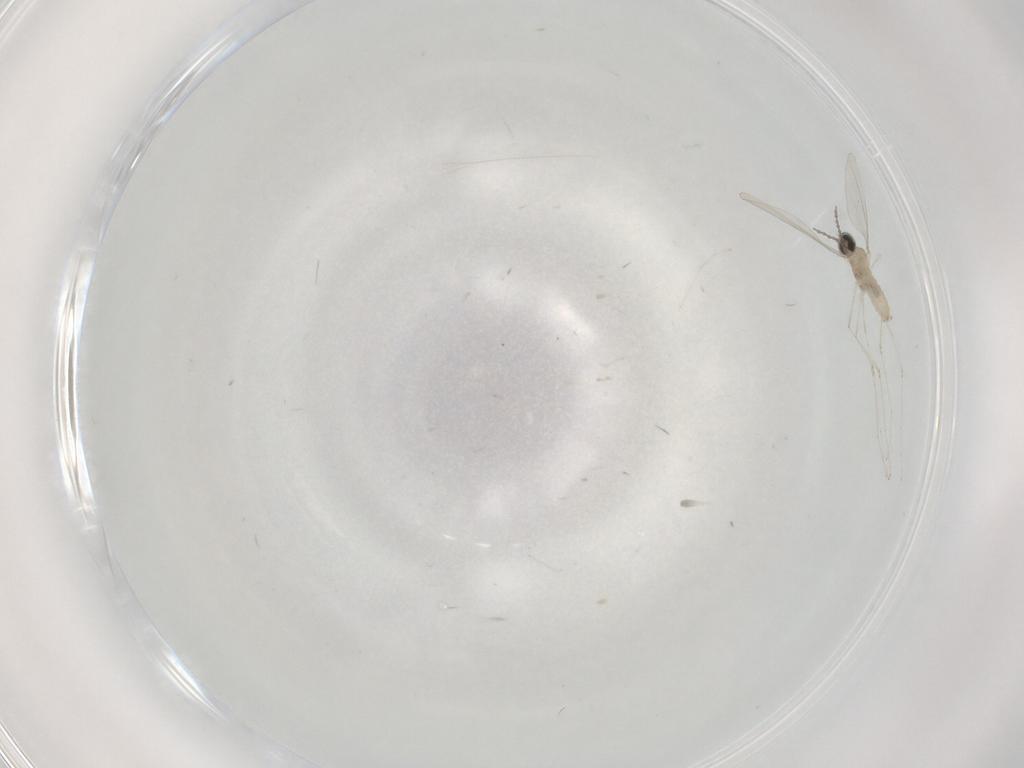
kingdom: Animalia
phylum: Arthropoda
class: Insecta
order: Diptera
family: Cecidomyiidae
